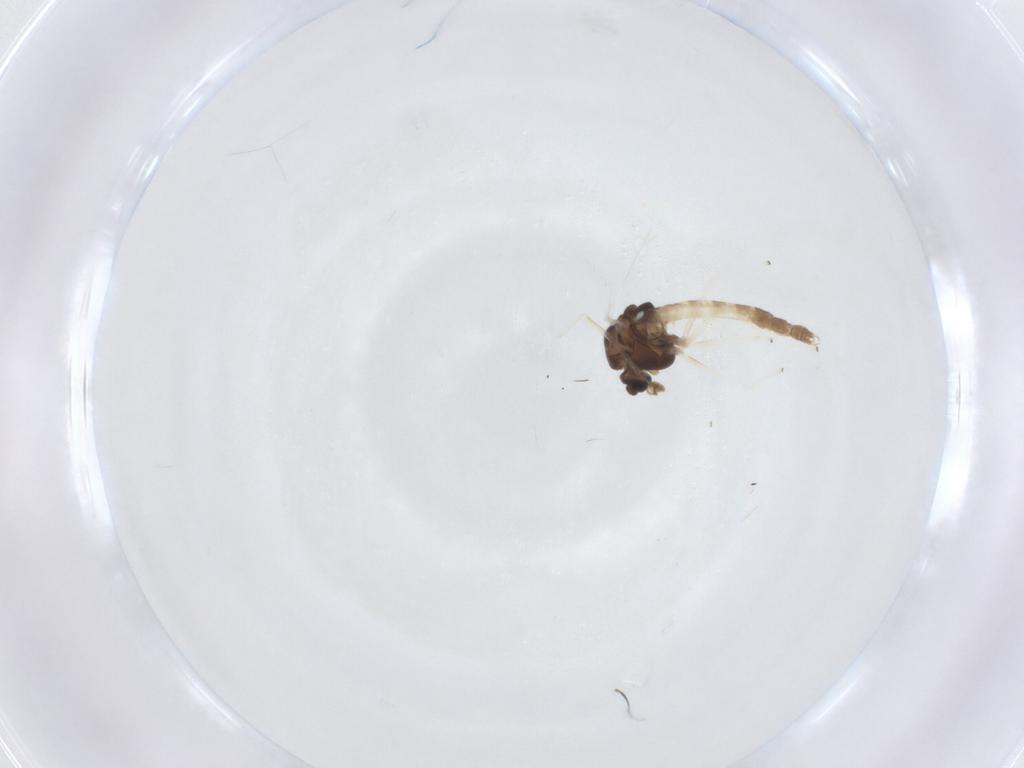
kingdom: Animalia
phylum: Arthropoda
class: Insecta
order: Diptera
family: Chironomidae
